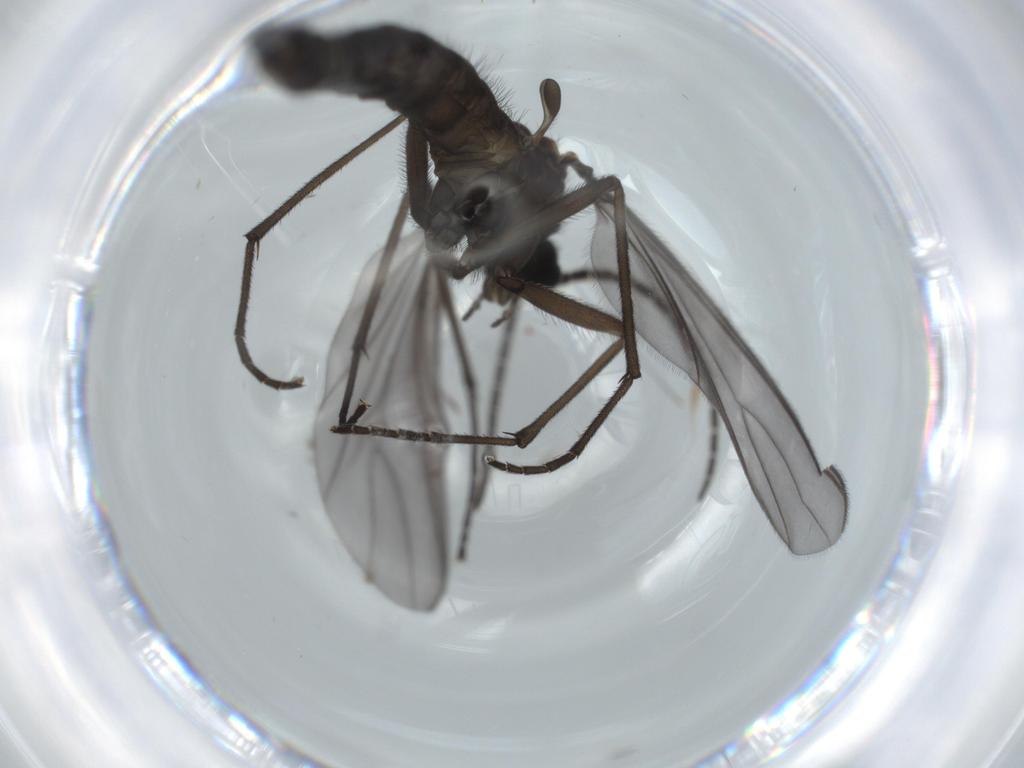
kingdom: Animalia
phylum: Arthropoda
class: Insecta
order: Diptera
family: Sciaridae
